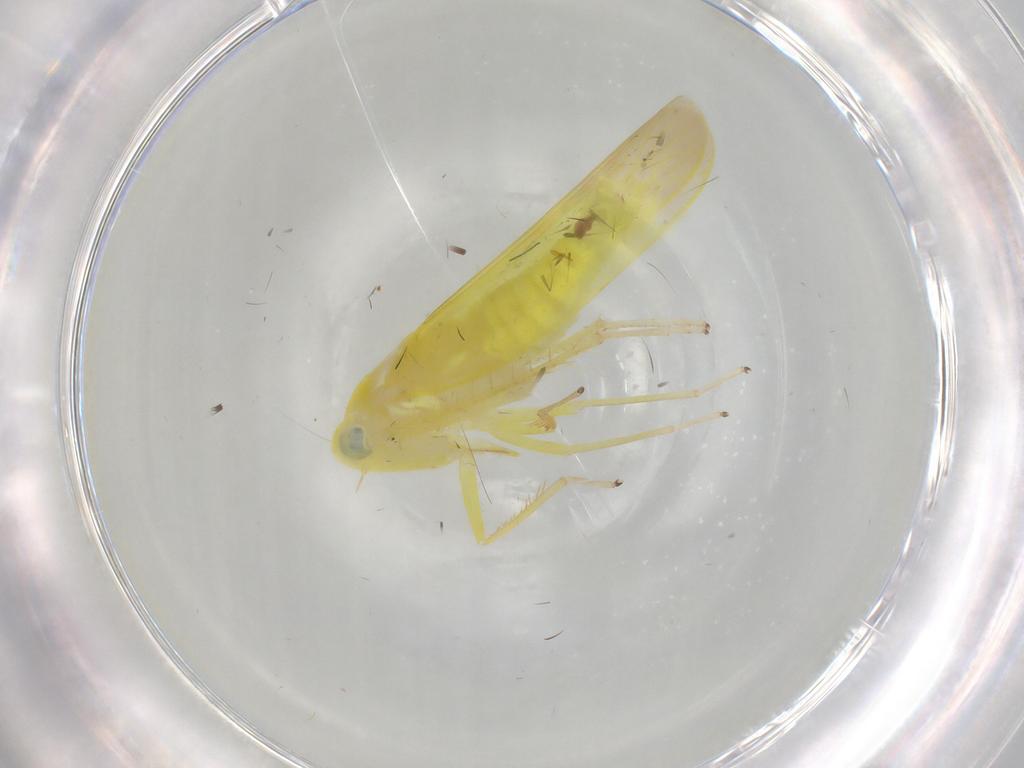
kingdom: Animalia
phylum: Arthropoda
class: Insecta
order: Hemiptera
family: Cicadellidae
